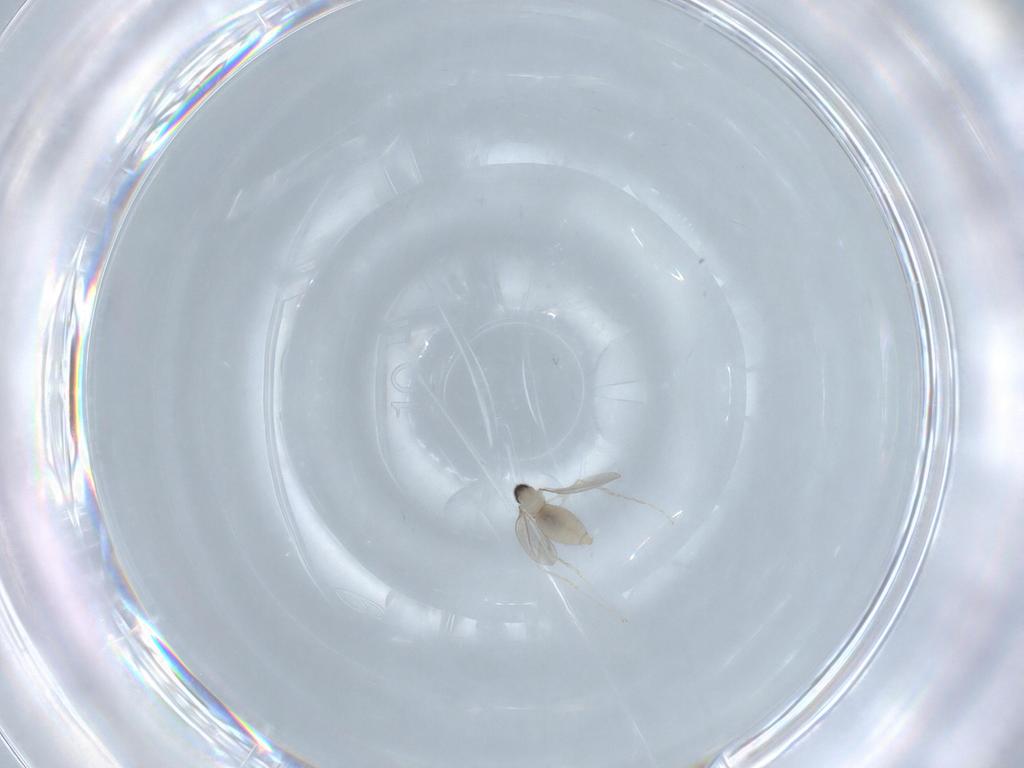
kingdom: Animalia
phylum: Arthropoda
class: Insecta
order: Diptera
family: Cecidomyiidae
